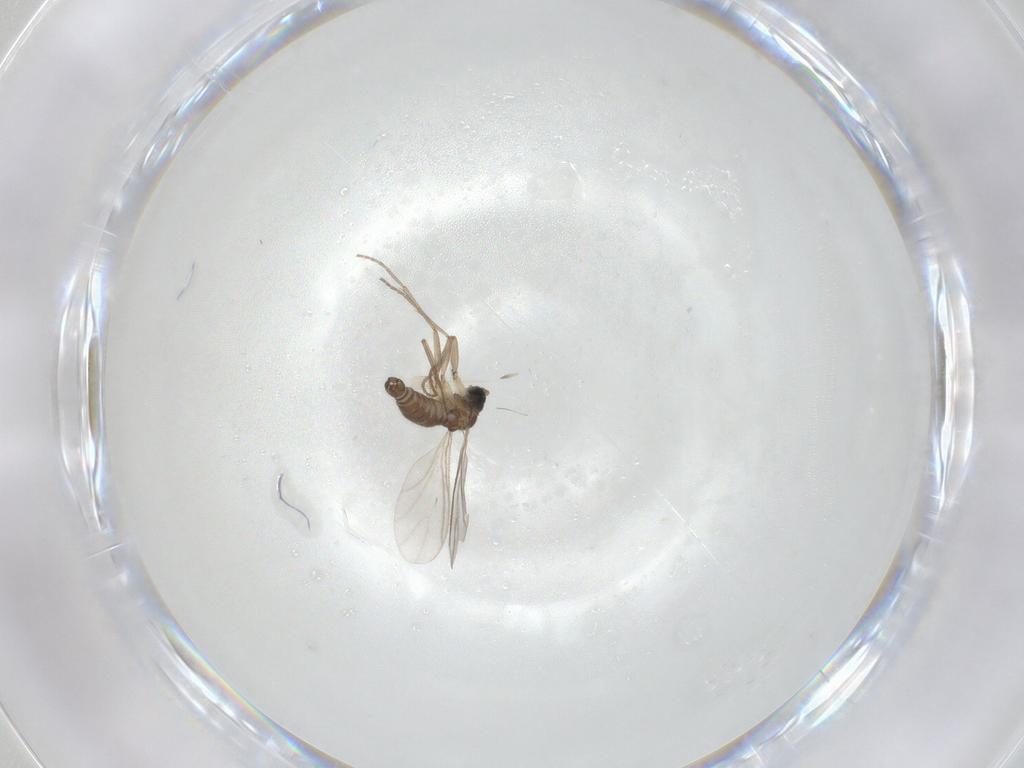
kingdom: Animalia
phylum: Arthropoda
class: Insecta
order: Diptera
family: Sciaridae
